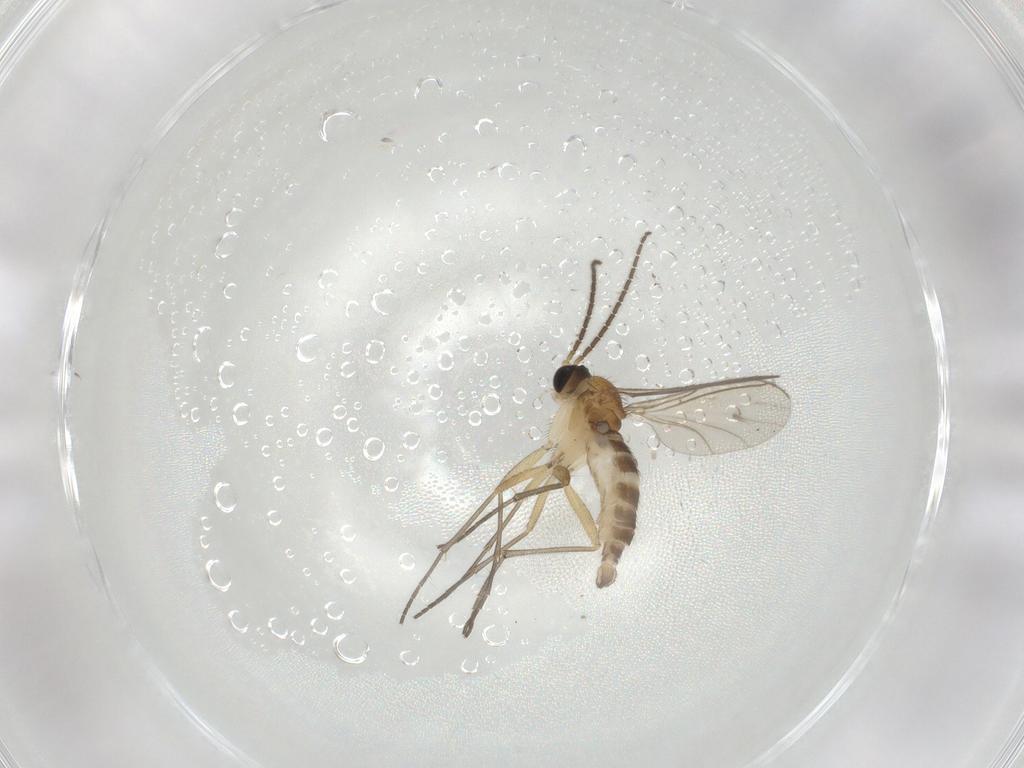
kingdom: Animalia
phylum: Arthropoda
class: Insecta
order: Diptera
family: Sciaridae
